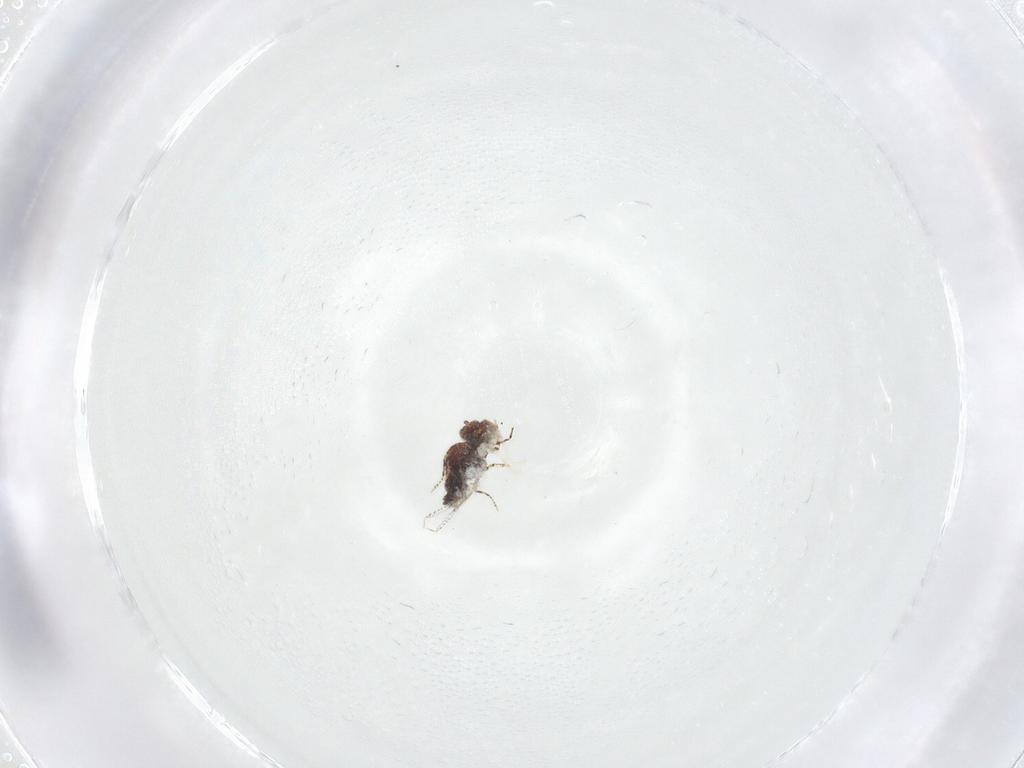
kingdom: Animalia
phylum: Arthropoda
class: Collembola
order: Symphypleona
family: Bourletiellidae
